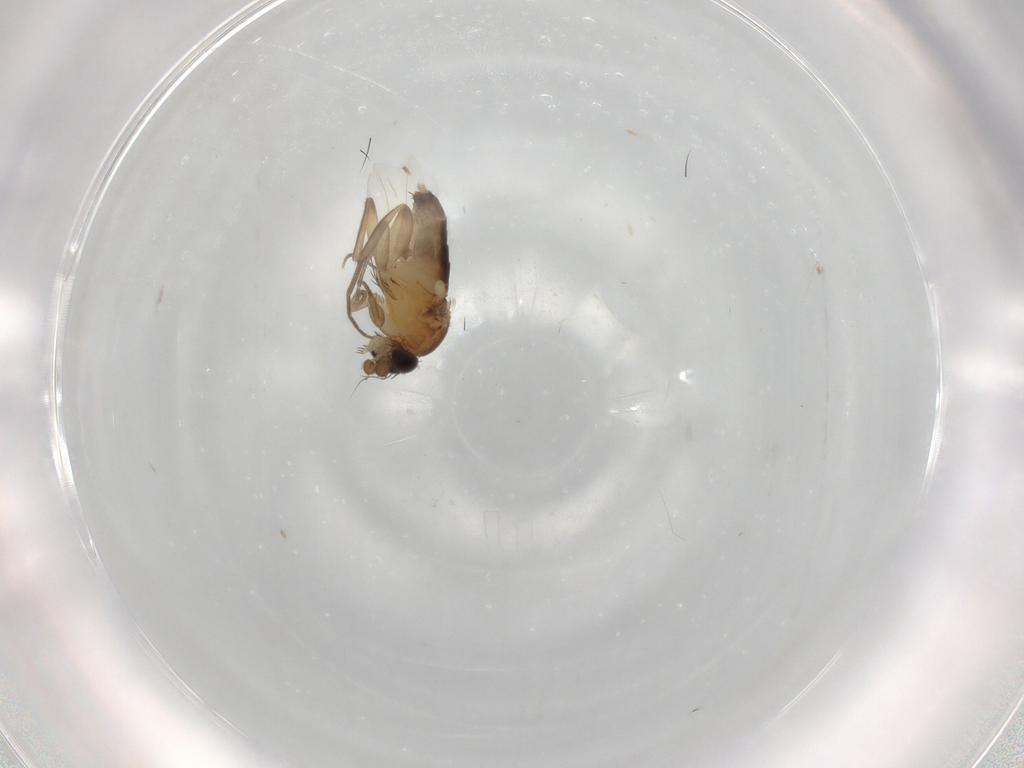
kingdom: Animalia
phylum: Arthropoda
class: Insecta
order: Diptera
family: Phoridae
